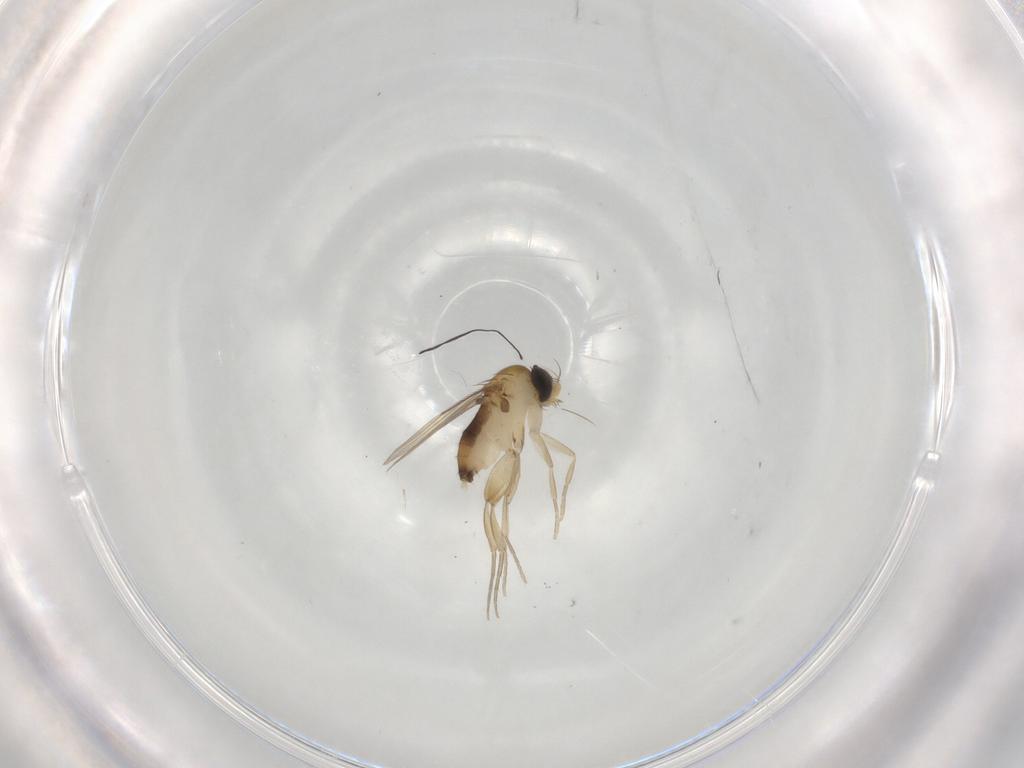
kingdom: Animalia
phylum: Arthropoda
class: Insecta
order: Diptera
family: Phoridae
